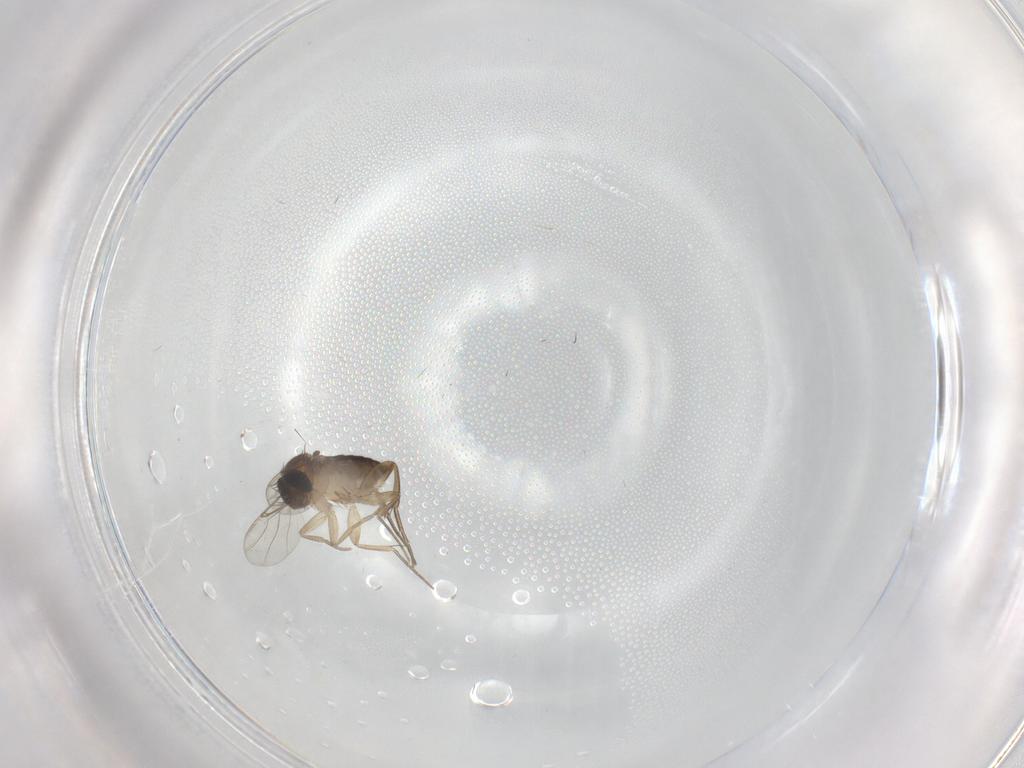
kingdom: Animalia
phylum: Arthropoda
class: Insecta
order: Diptera
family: Phoridae
